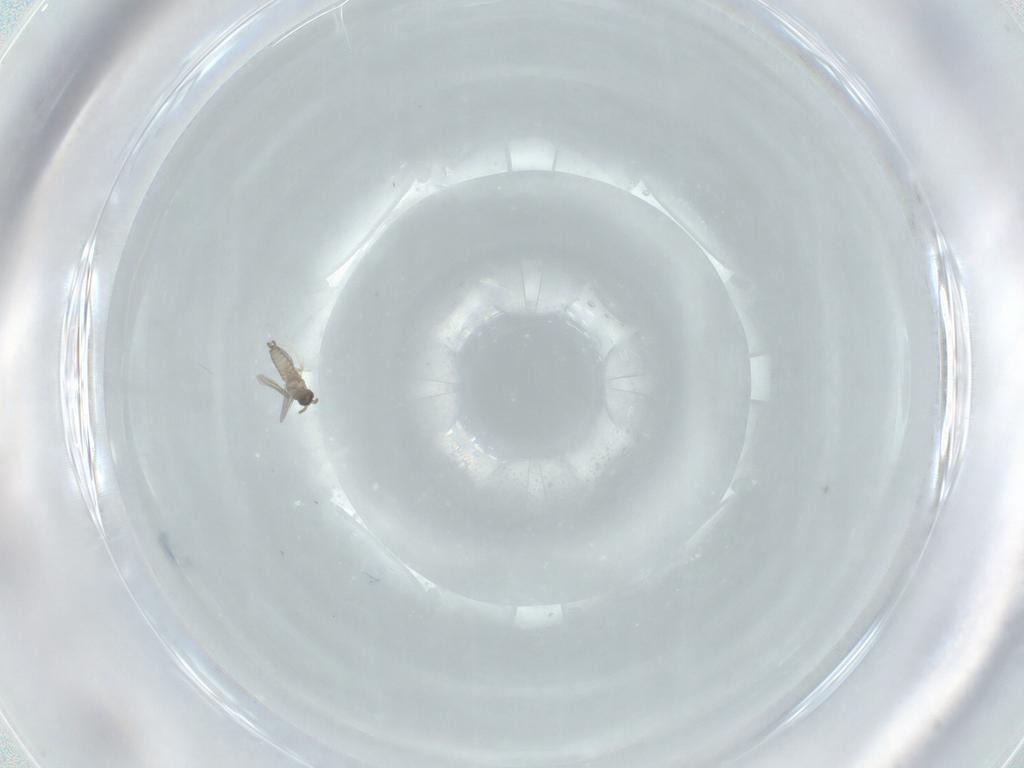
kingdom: Animalia
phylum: Arthropoda
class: Insecta
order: Diptera
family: Cecidomyiidae
